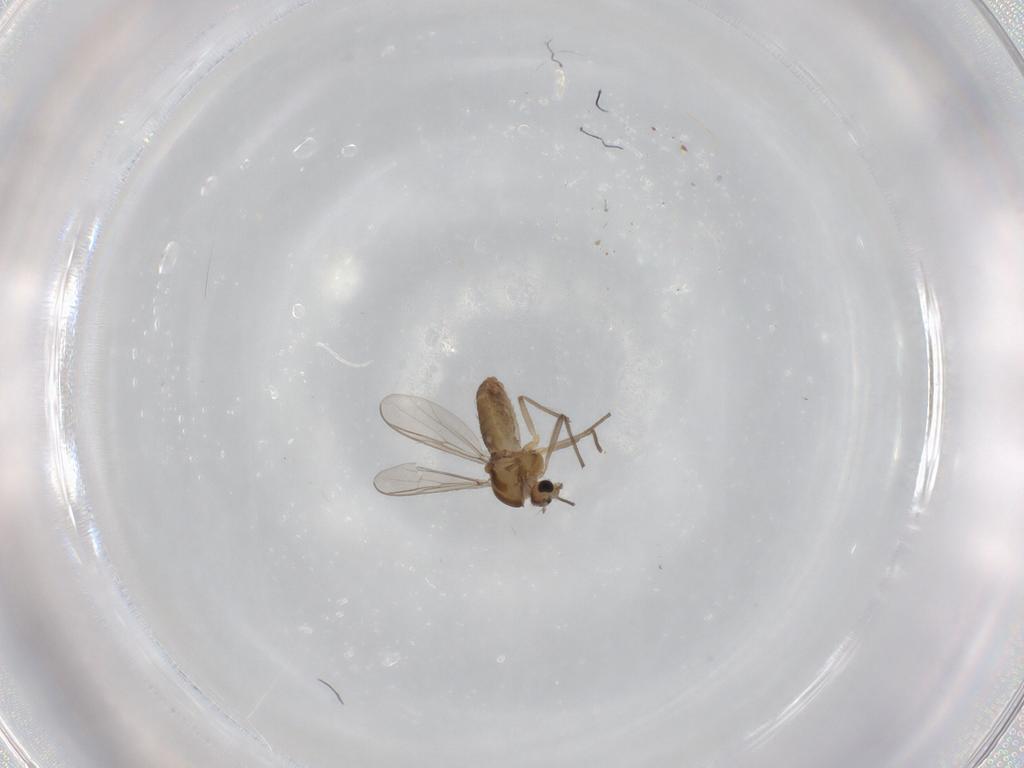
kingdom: Animalia
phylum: Arthropoda
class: Insecta
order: Diptera
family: Chironomidae
